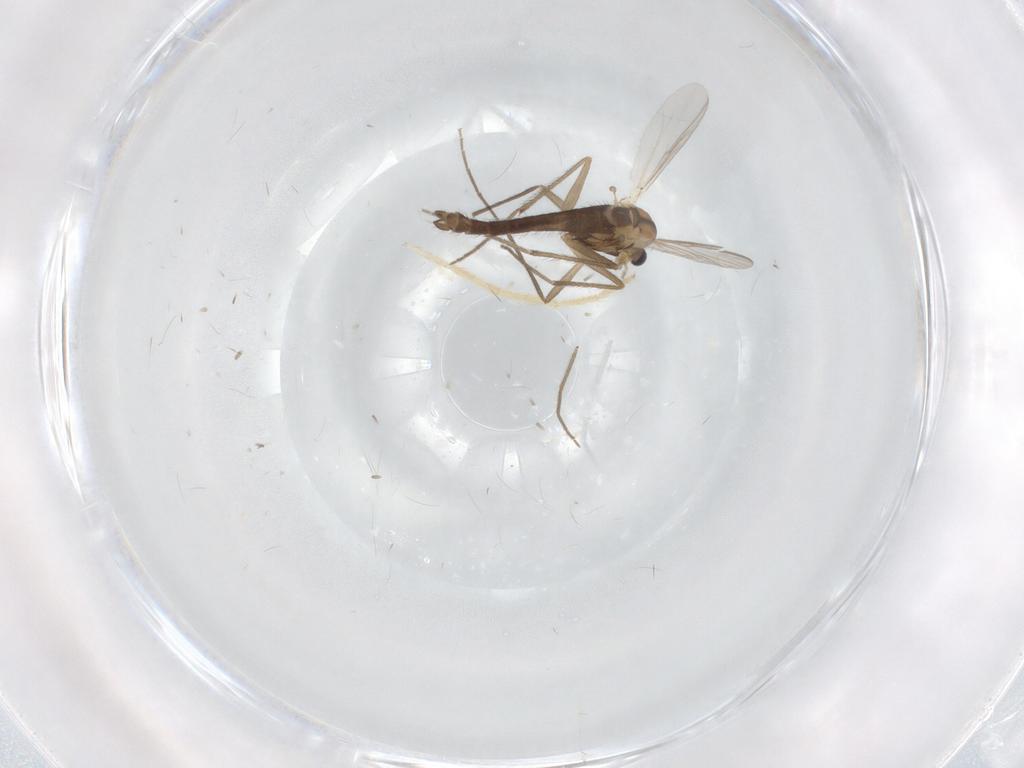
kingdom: Animalia
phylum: Arthropoda
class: Insecta
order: Diptera
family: Chironomidae
